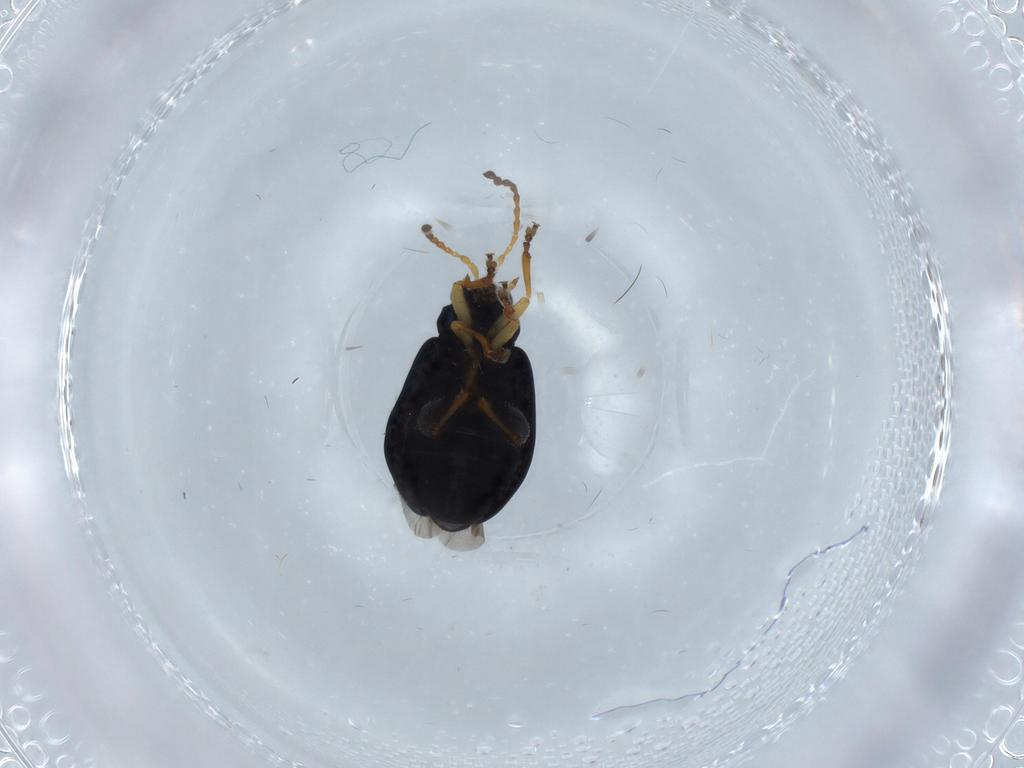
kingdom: Animalia
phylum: Arthropoda
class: Insecta
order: Coleoptera
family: Chrysomelidae
